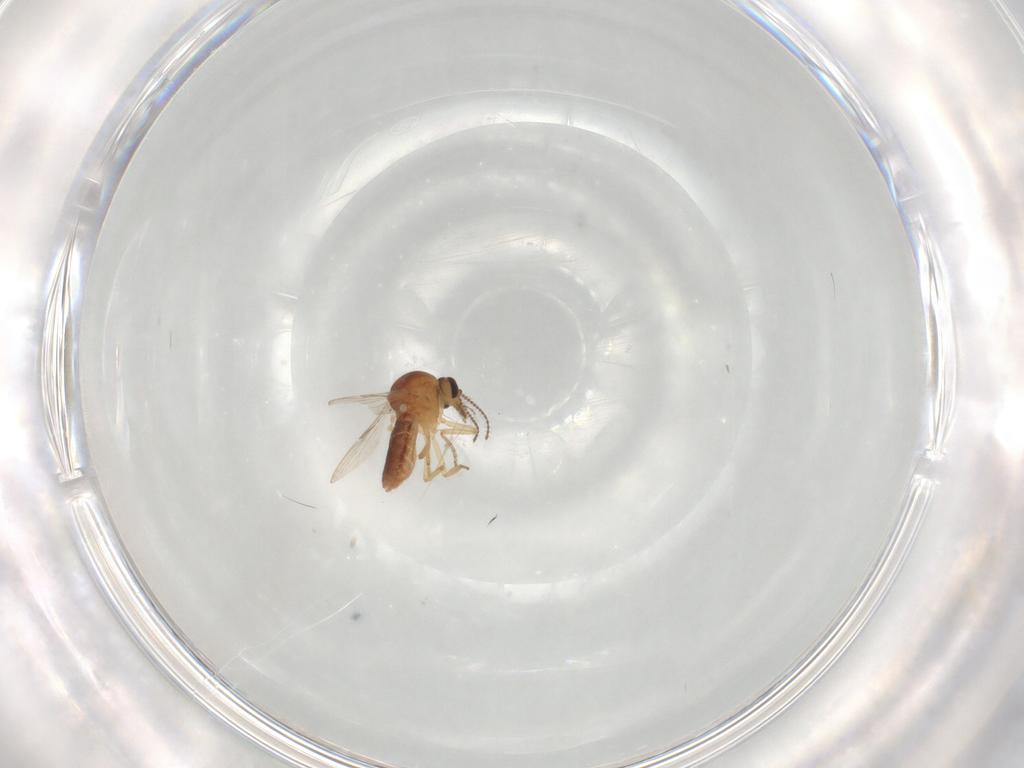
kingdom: Animalia
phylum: Arthropoda
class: Insecta
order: Diptera
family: Ceratopogonidae
